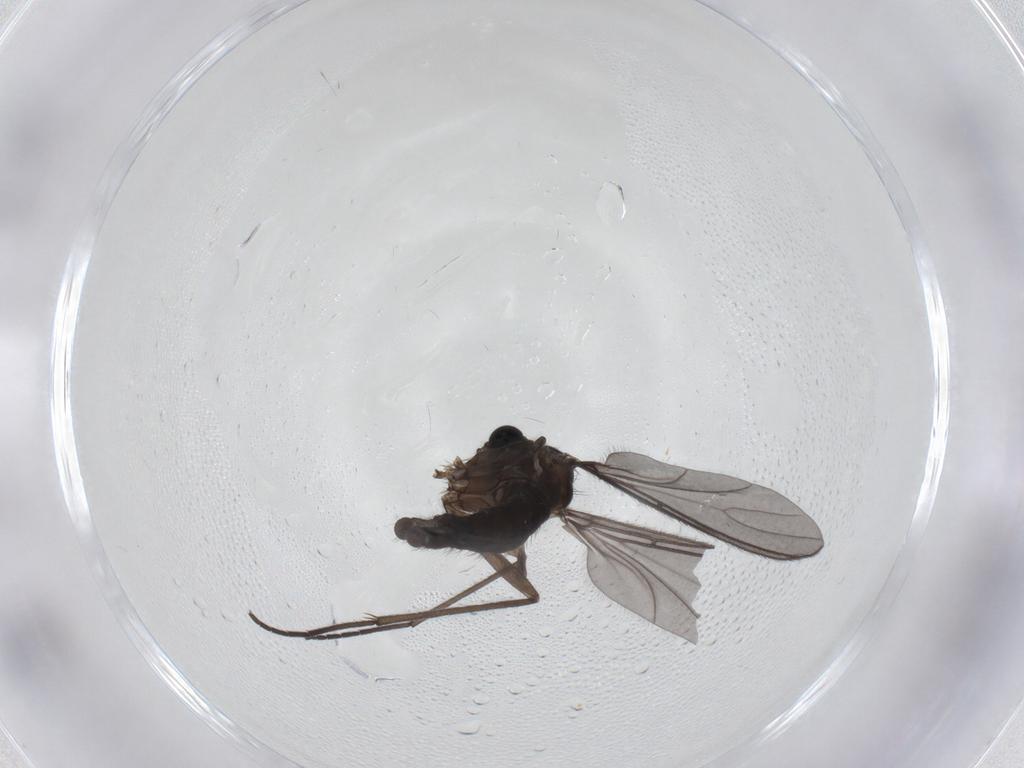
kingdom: Animalia
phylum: Arthropoda
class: Insecta
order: Diptera
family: Sciaridae
